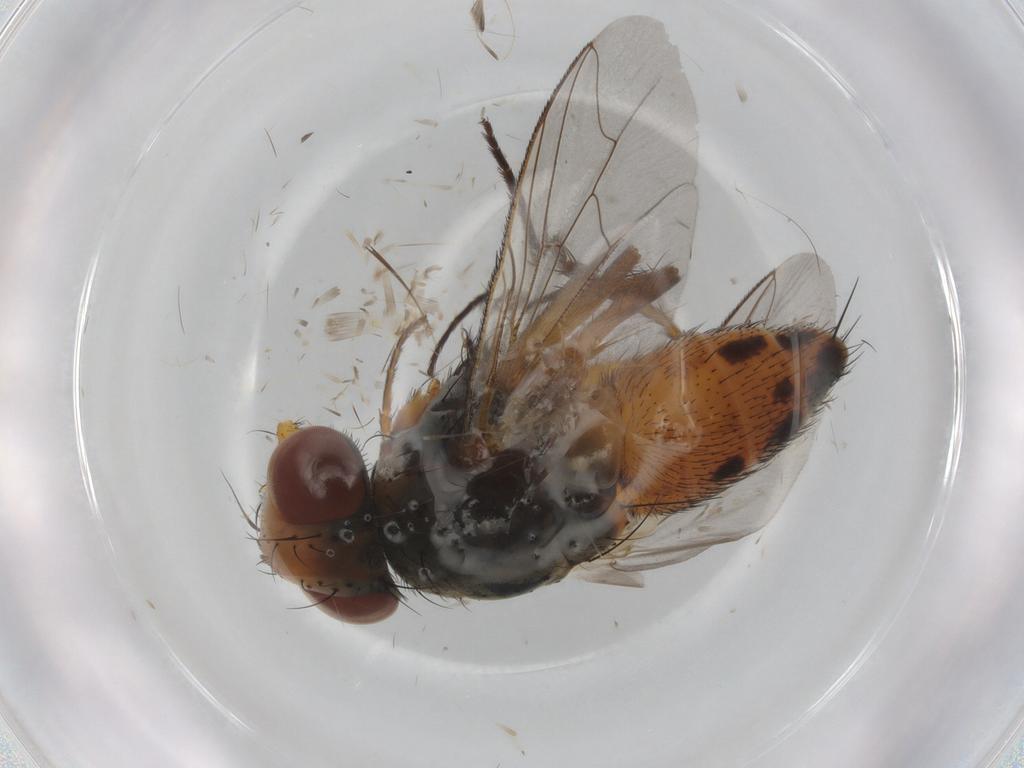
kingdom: Animalia
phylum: Arthropoda
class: Insecta
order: Diptera
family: Sarcophagidae
